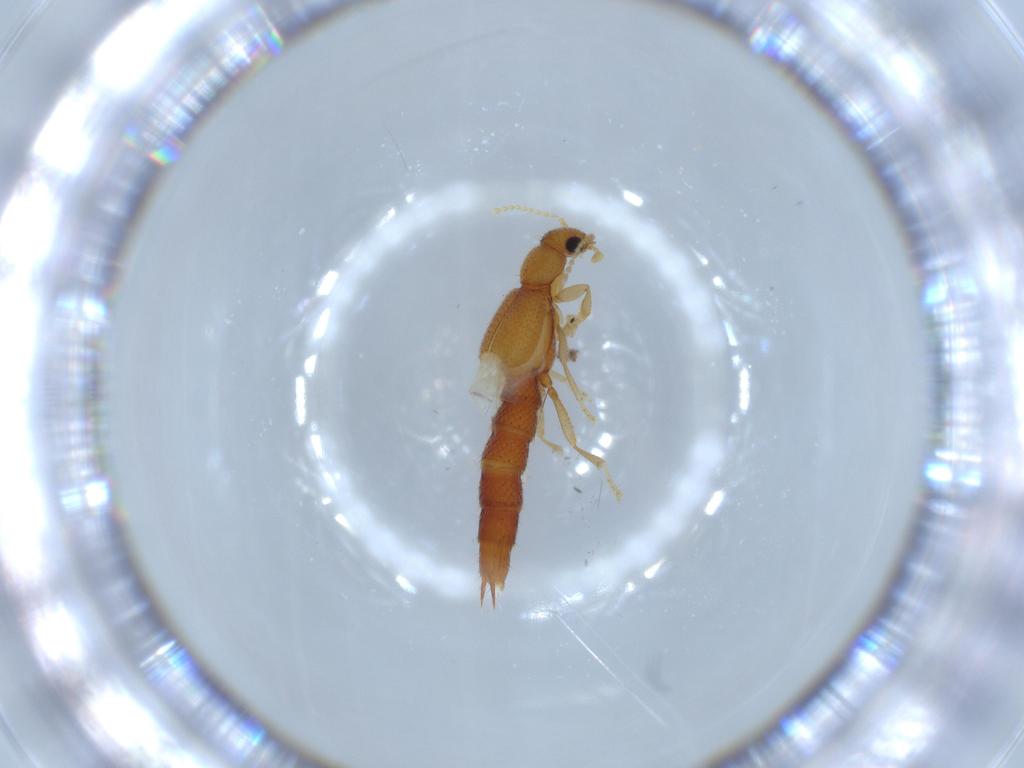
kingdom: Animalia
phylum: Arthropoda
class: Insecta
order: Coleoptera
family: Staphylinidae
